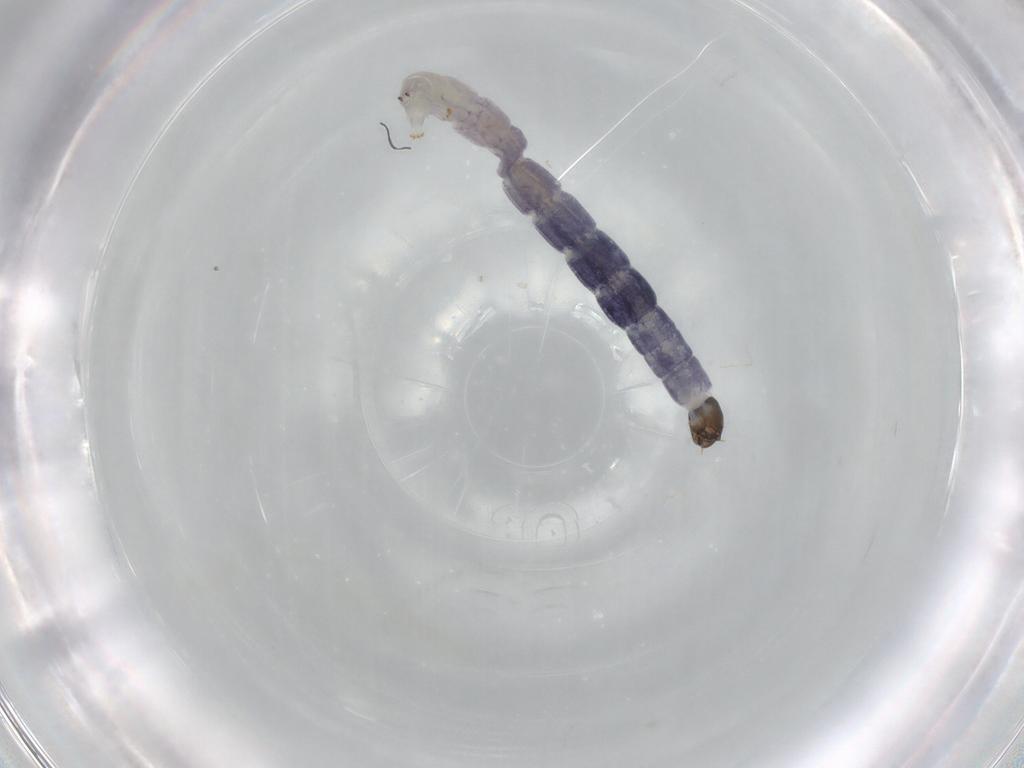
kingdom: Animalia
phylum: Arthropoda
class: Insecta
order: Diptera
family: Chironomidae
